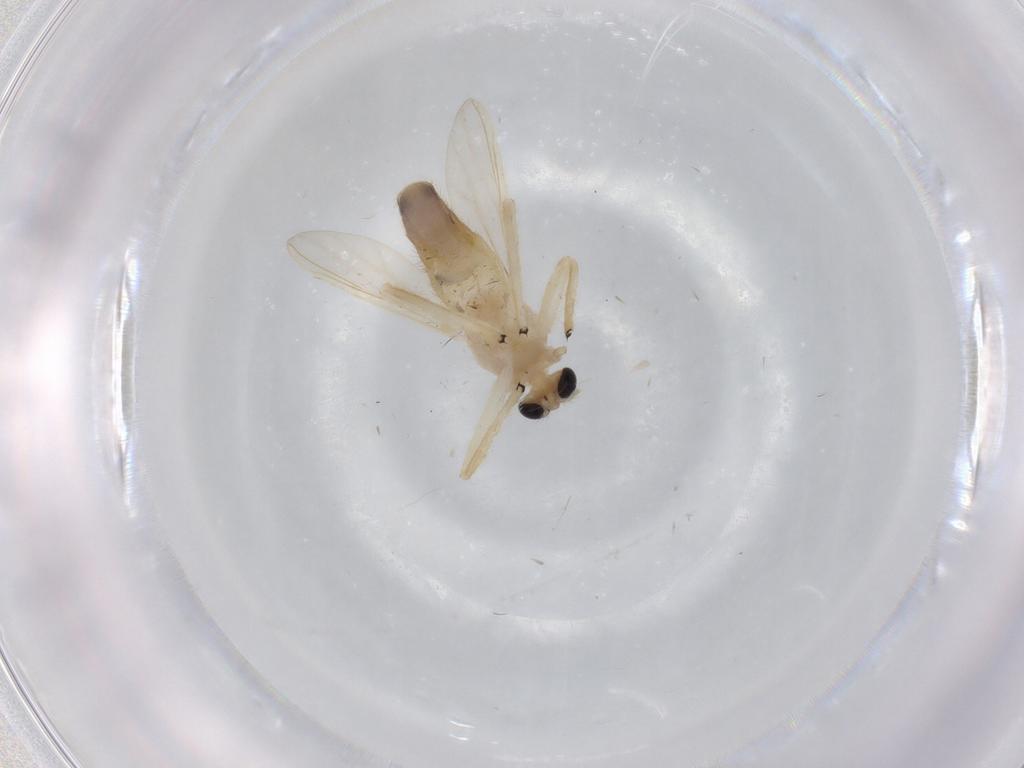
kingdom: Animalia
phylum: Arthropoda
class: Insecta
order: Diptera
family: Chironomidae
